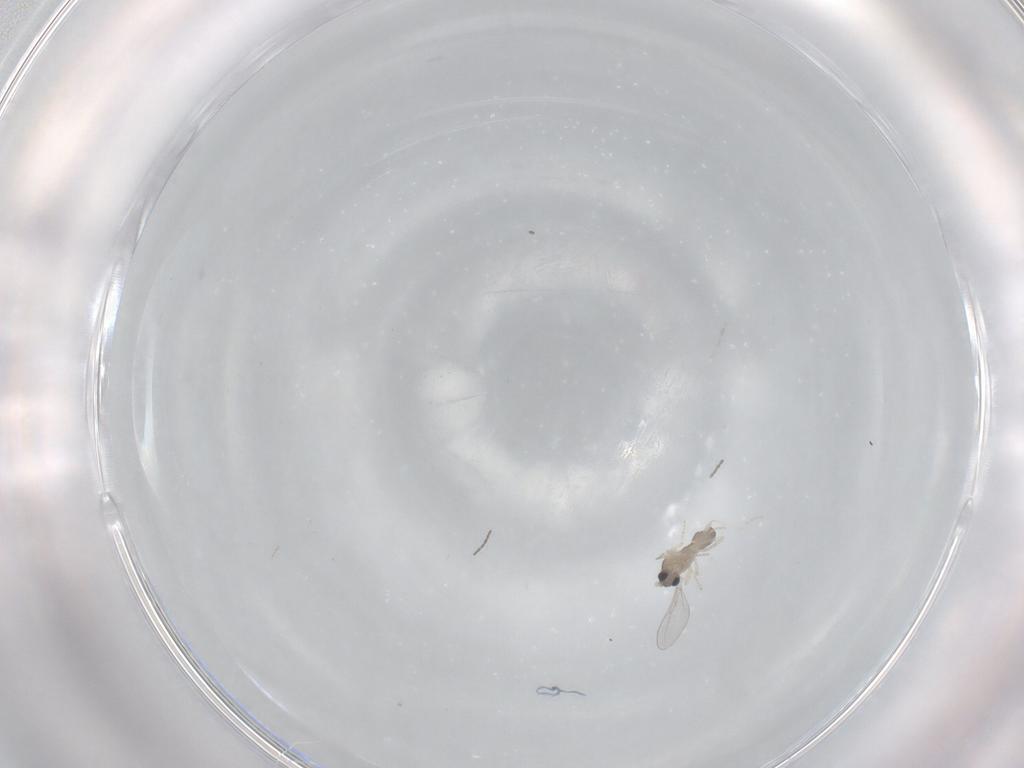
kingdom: Animalia
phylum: Arthropoda
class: Insecta
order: Diptera
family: Cecidomyiidae
